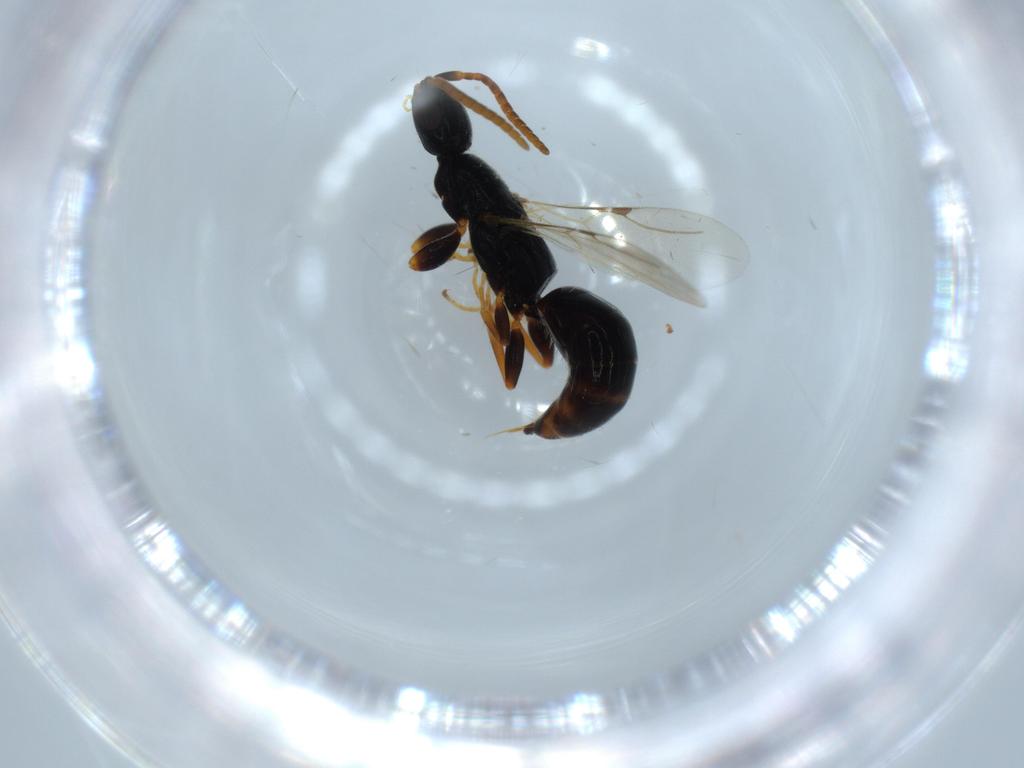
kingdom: Animalia
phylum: Arthropoda
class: Insecta
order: Hymenoptera
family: Bethylidae
